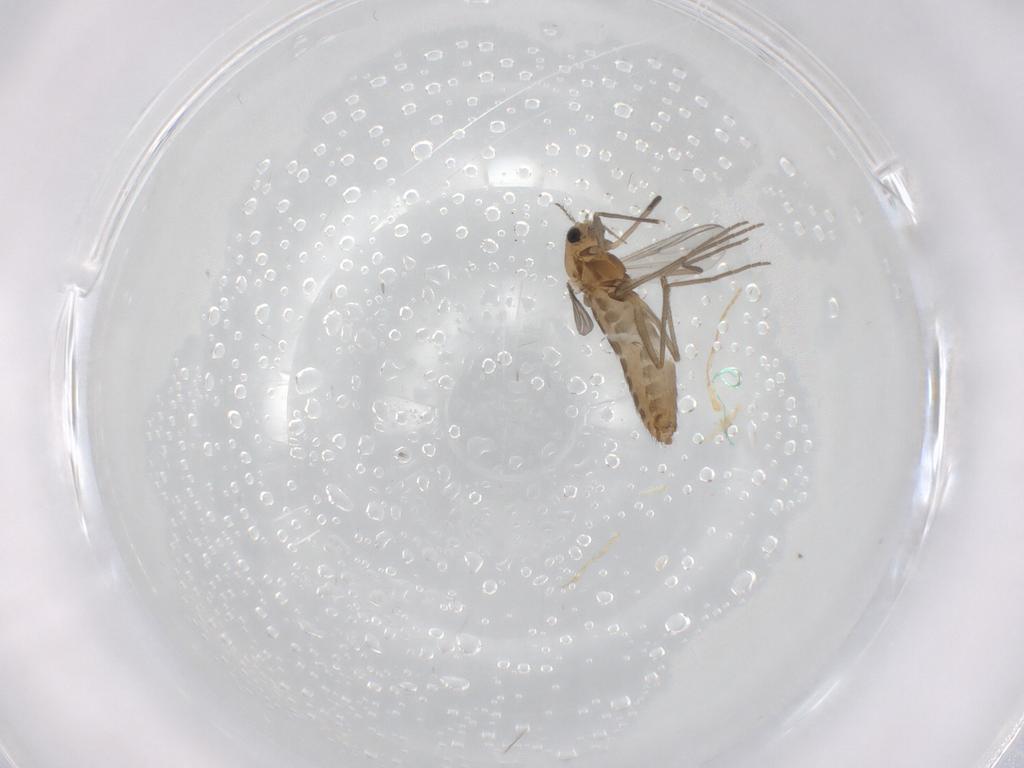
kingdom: Animalia
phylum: Arthropoda
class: Insecta
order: Diptera
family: Chironomidae
